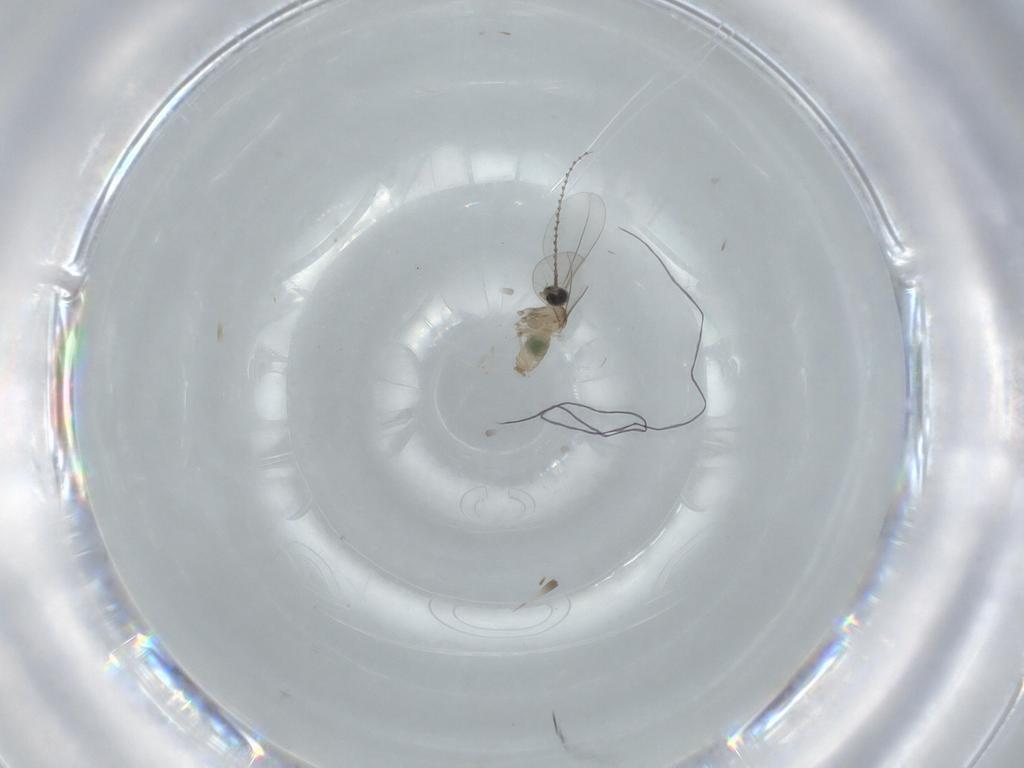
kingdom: Animalia
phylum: Arthropoda
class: Insecta
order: Diptera
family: Cecidomyiidae
